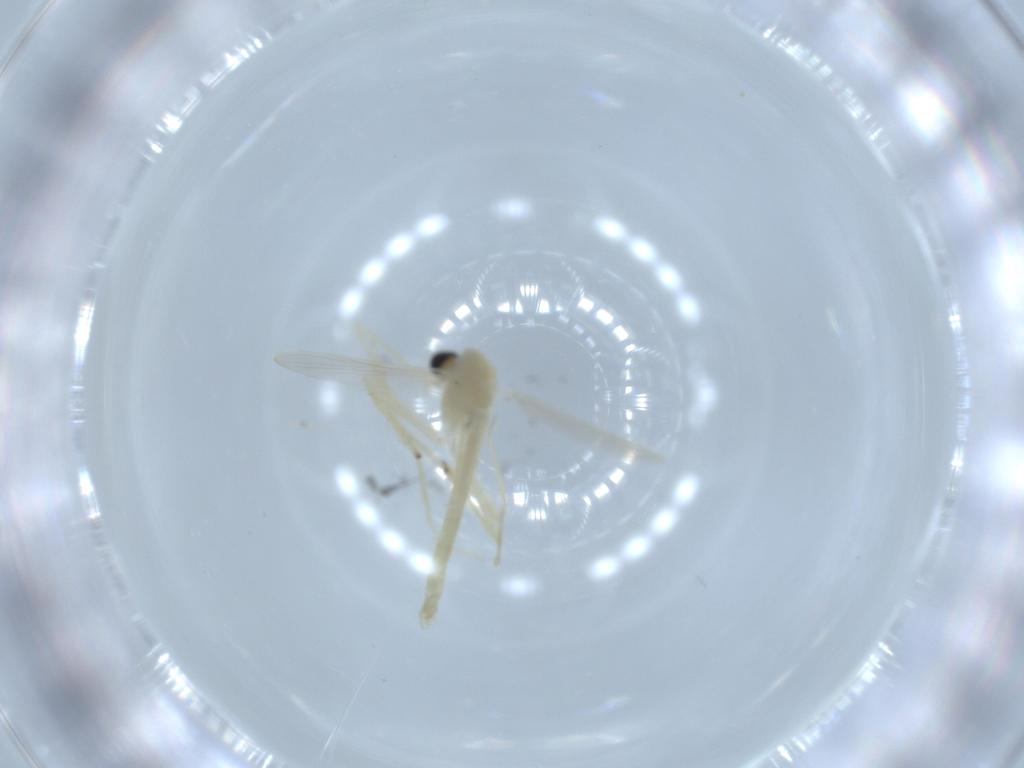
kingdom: Animalia
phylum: Arthropoda
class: Insecta
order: Diptera
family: Chironomidae
